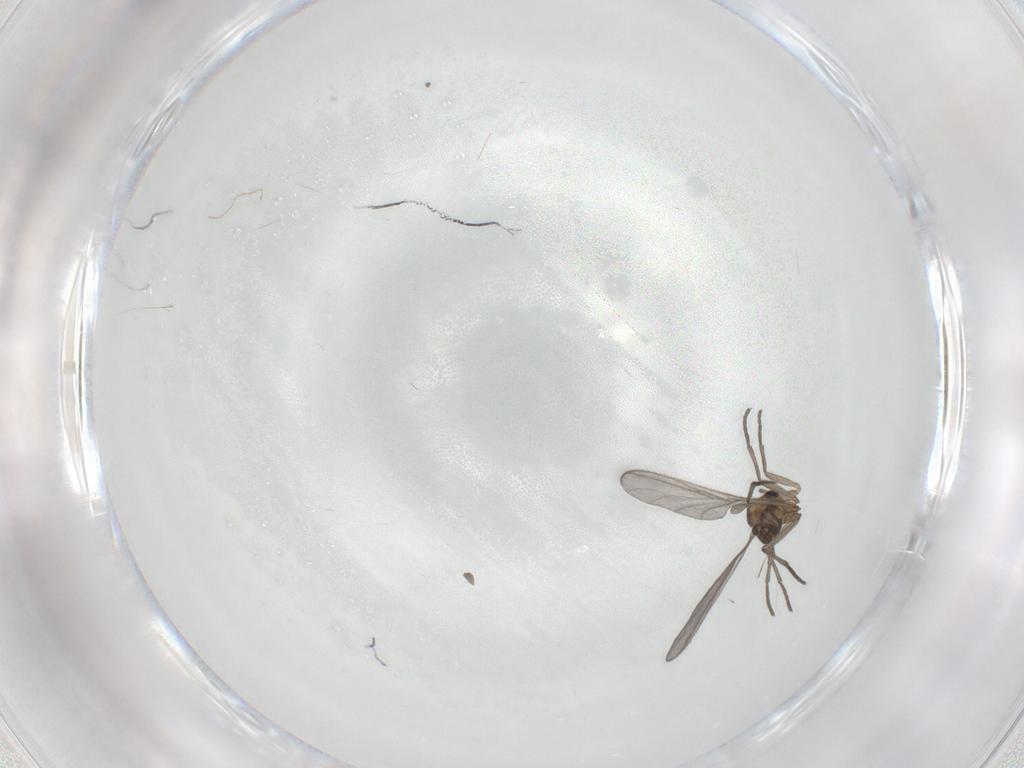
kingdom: Animalia
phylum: Arthropoda
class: Insecta
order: Diptera
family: Sciaridae
